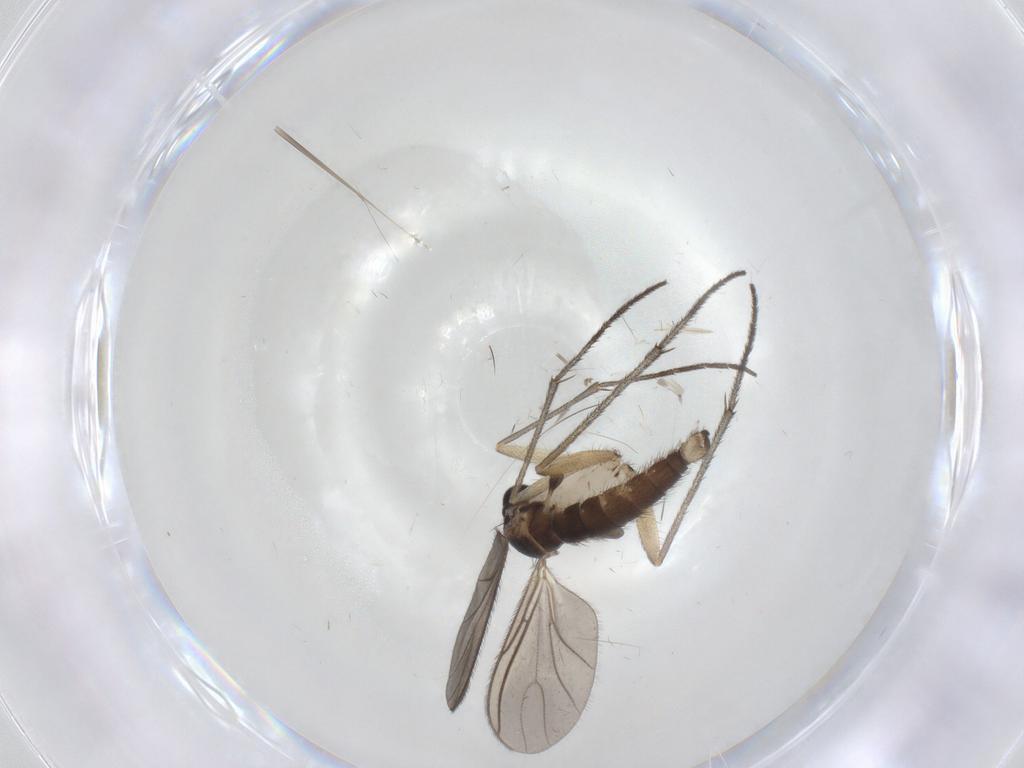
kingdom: Animalia
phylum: Arthropoda
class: Insecta
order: Diptera
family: Sciaridae
